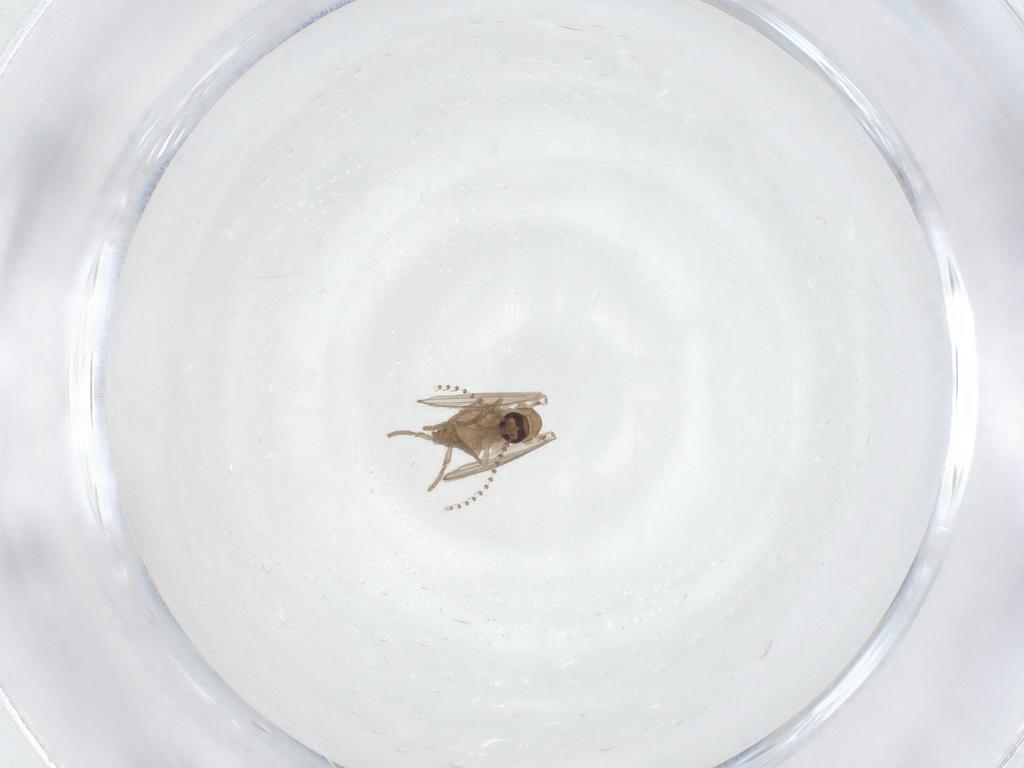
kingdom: Animalia
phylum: Arthropoda
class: Insecta
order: Diptera
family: Psychodidae
